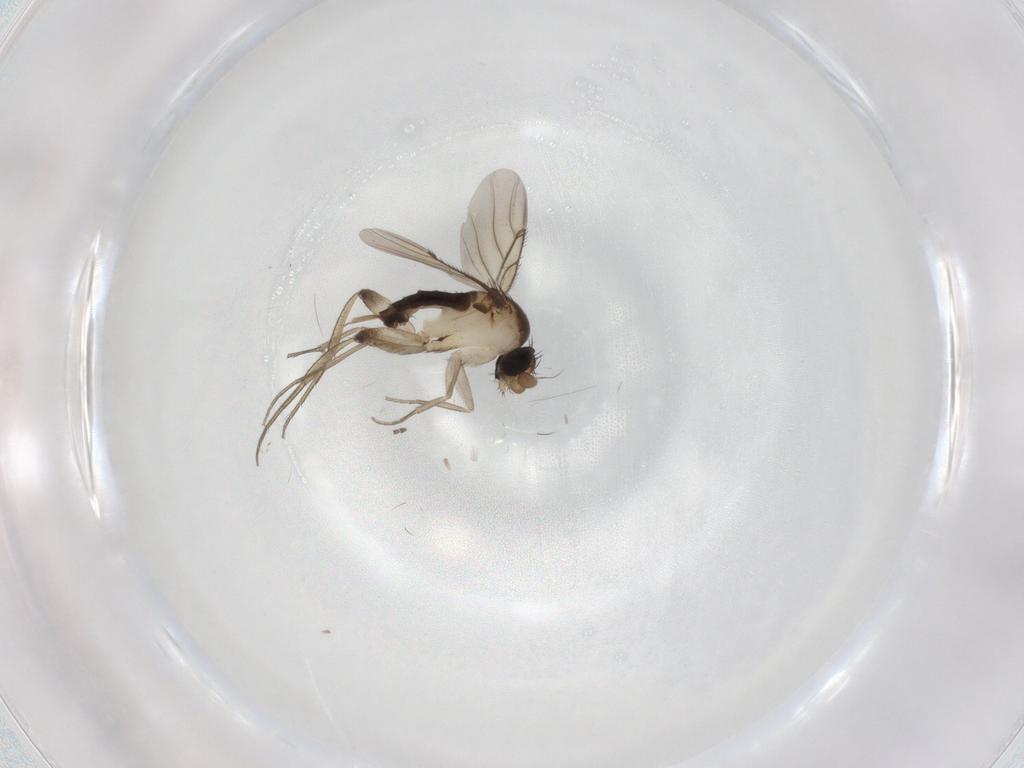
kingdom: Animalia
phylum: Arthropoda
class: Insecta
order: Diptera
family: Phoridae
